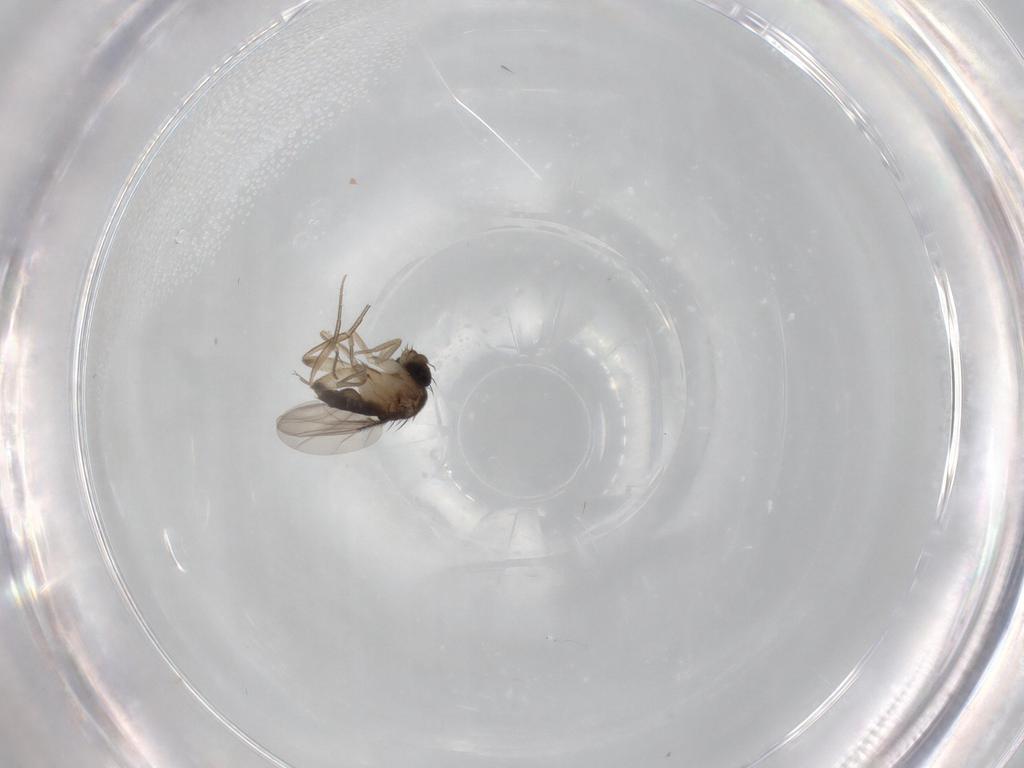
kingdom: Animalia
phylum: Arthropoda
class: Insecta
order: Diptera
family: Phoridae
